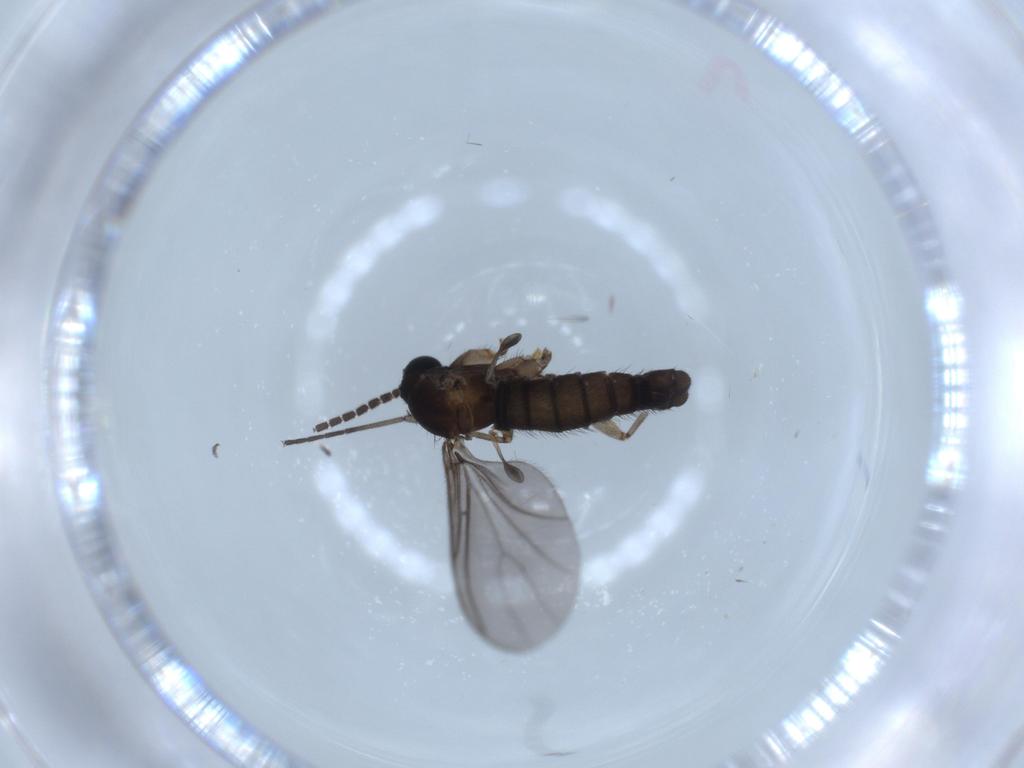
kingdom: Animalia
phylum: Arthropoda
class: Insecta
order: Diptera
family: Sciaridae
